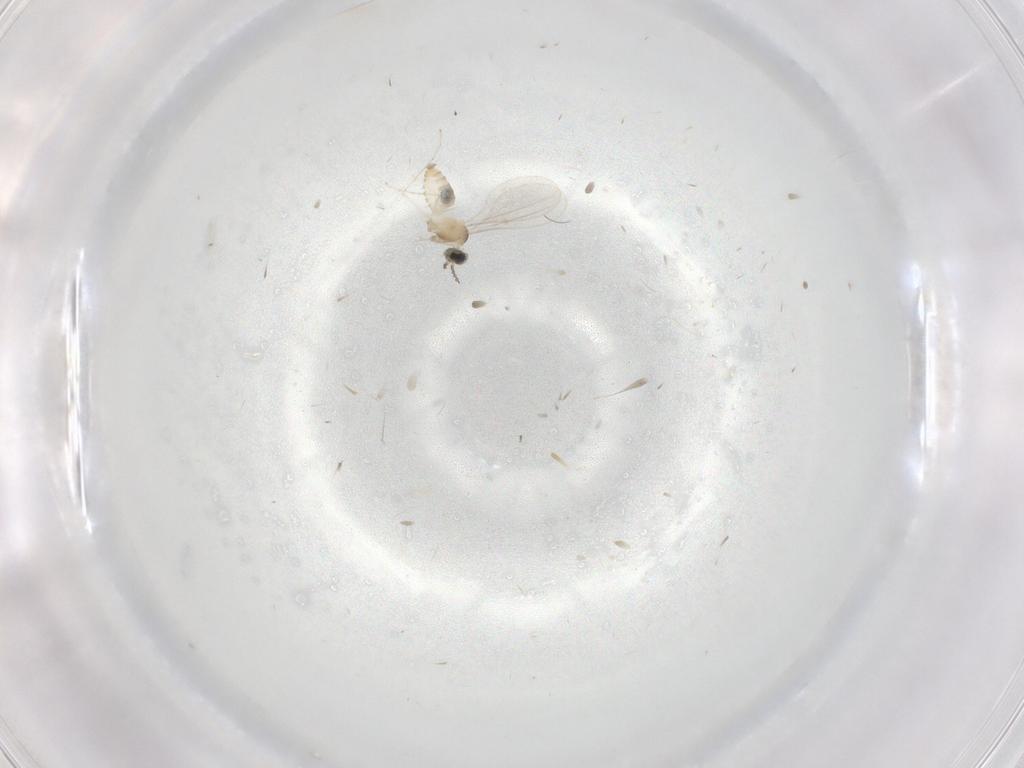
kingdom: Animalia
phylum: Arthropoda
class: Insecta
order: Diptera
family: Cecidomyiidae
